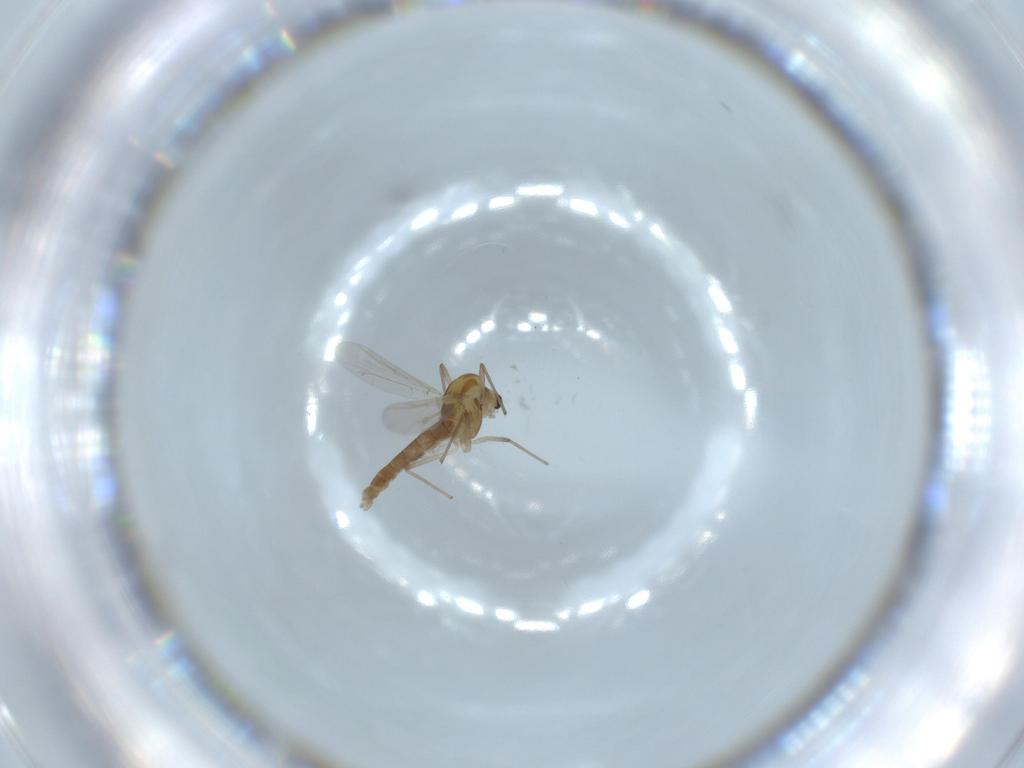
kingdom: Animalia
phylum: Arthropoda
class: Insecta
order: Diptera
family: Chironomidae
